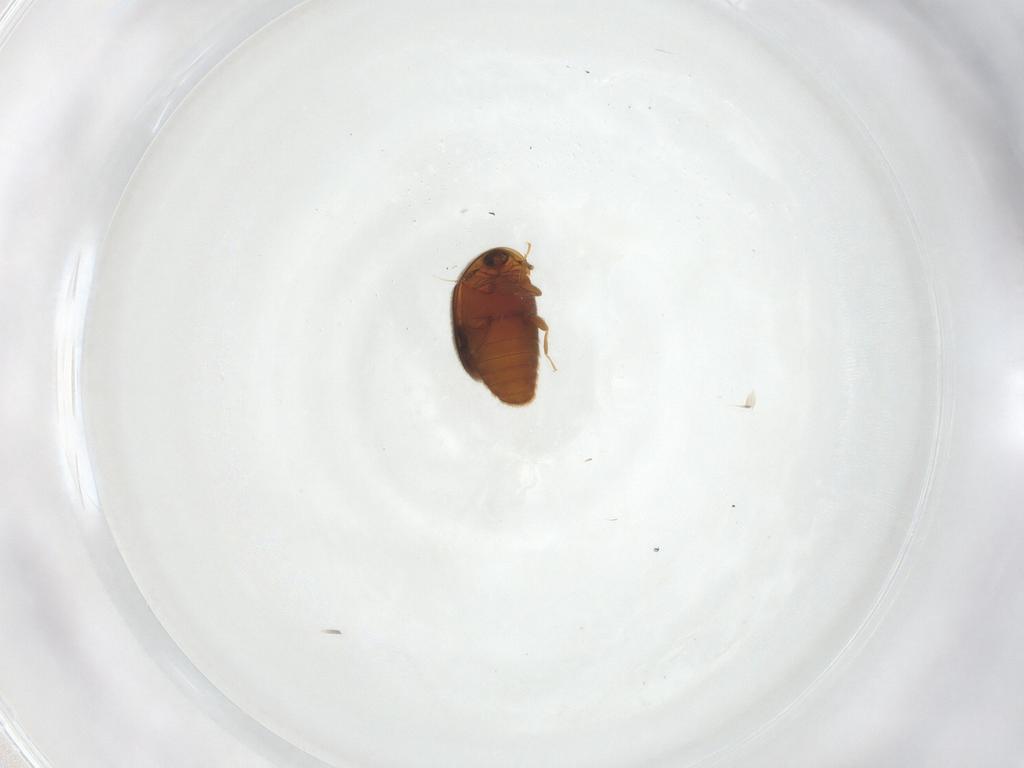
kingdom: Animalia
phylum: Arthropoda
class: Insecta
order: Coleoptera
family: Corylophidae
